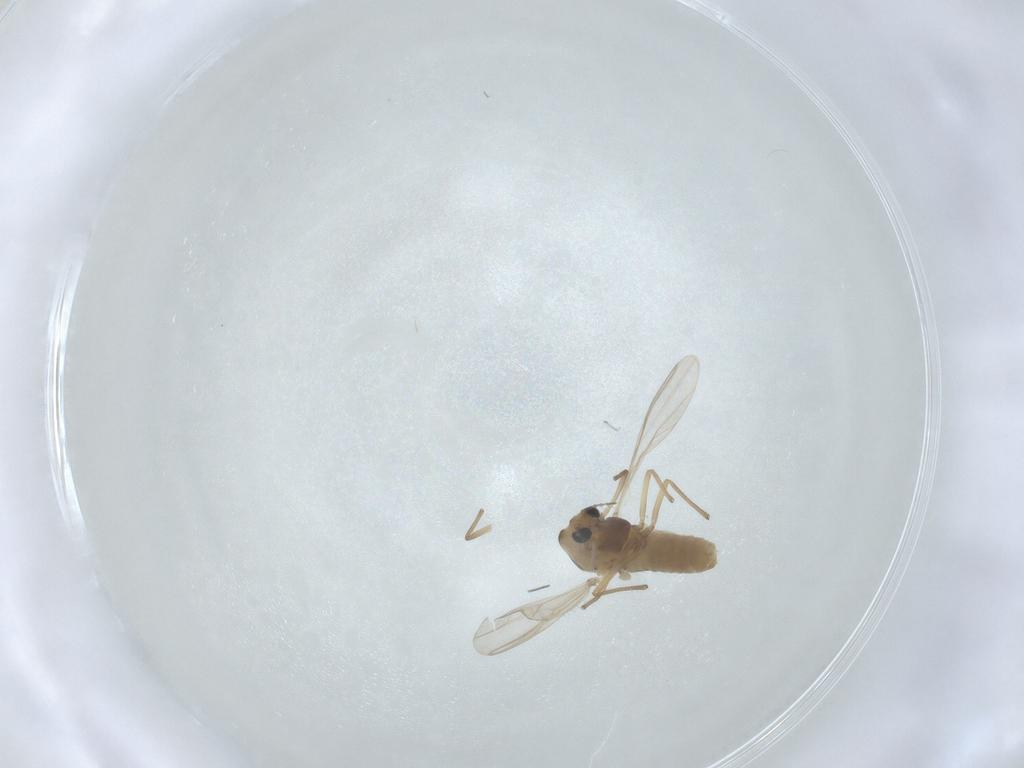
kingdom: Animalia
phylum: Arthropoda
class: Insecta
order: Diptera
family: Chironomidae
